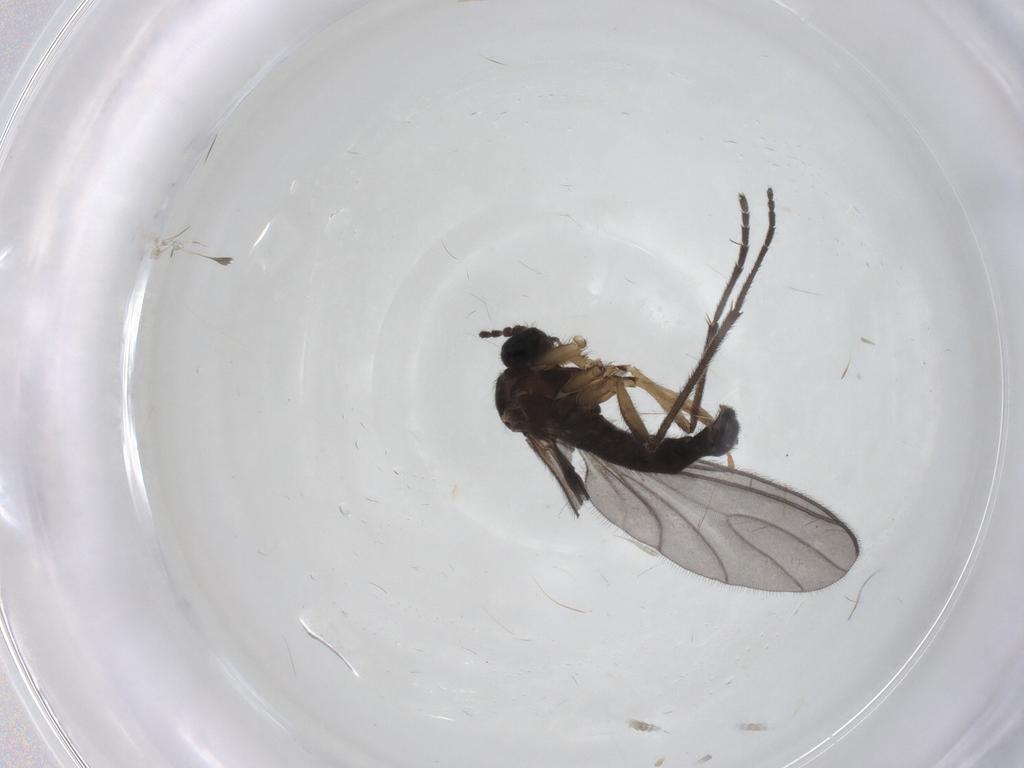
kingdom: Animalia
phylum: Arthropoda
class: Insecta
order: Diptera
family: Sciaridae
